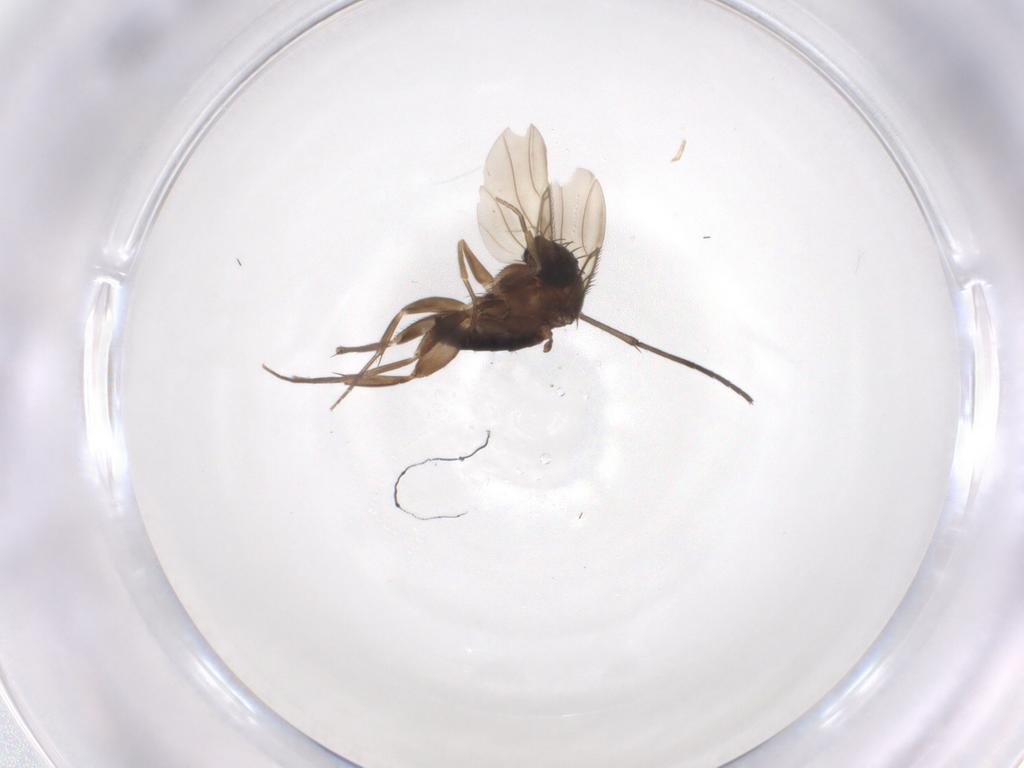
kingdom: Animalia
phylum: Arthropoda
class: Insecta
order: Diptera
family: Phoridae
